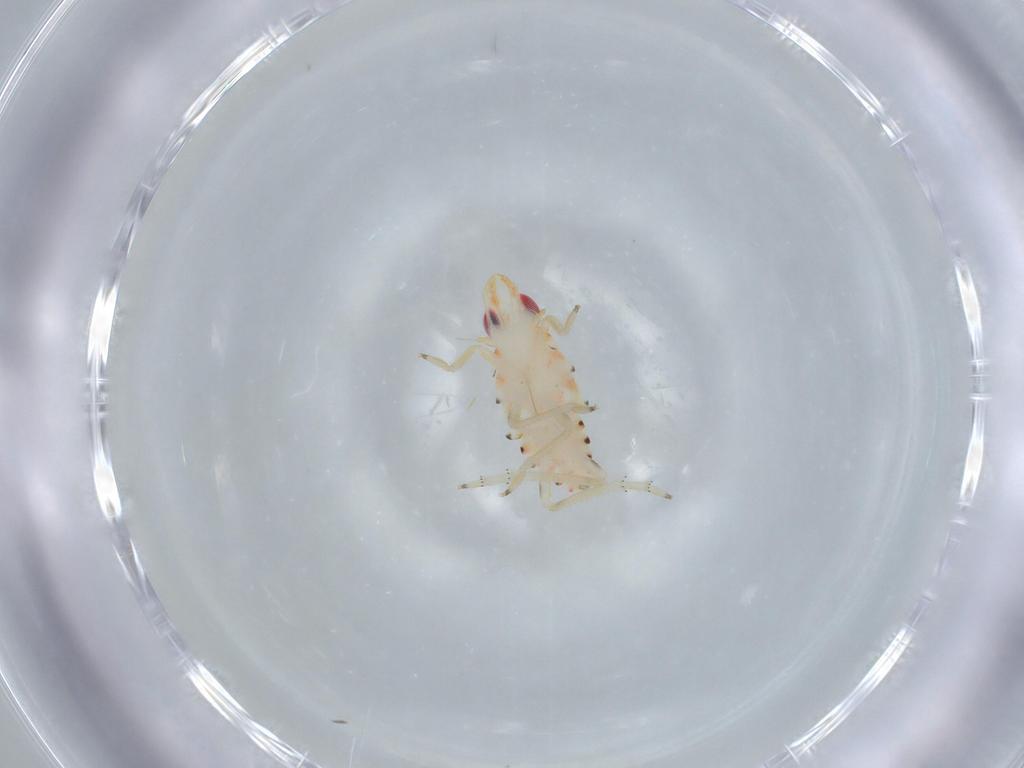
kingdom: Animalia
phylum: Arthropoda
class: Insecta
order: Hemiptera
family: Tropiduchidae
